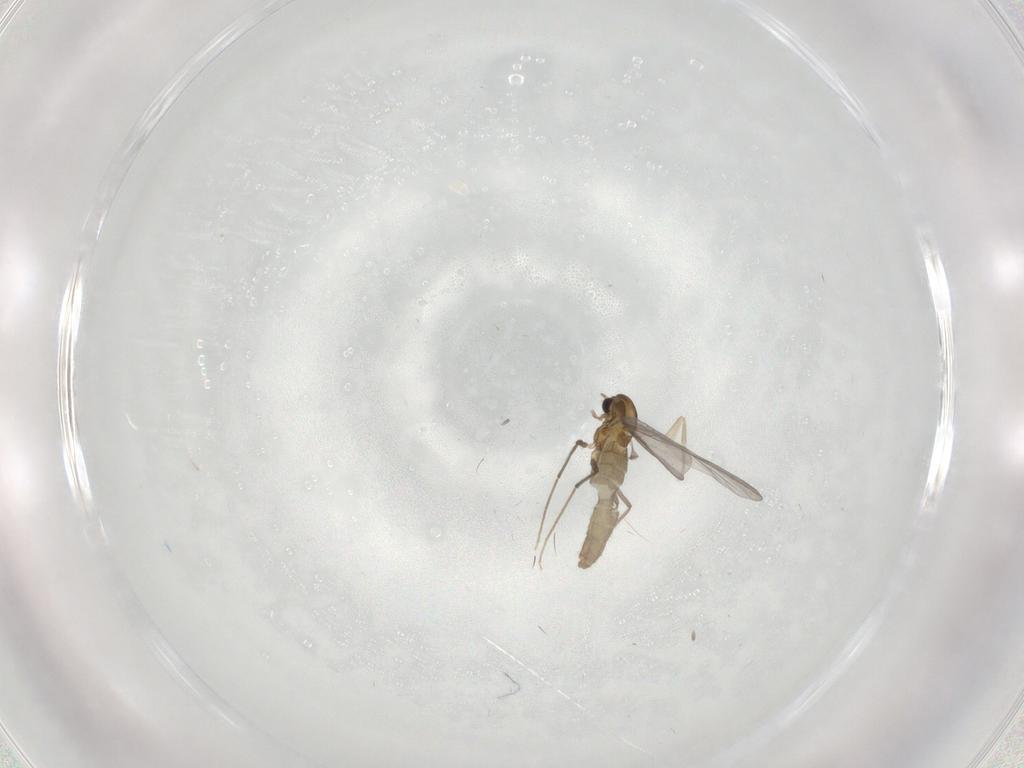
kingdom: Animalia
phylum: Arthropoda
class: Insecta
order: Diptera
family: Phoridae
